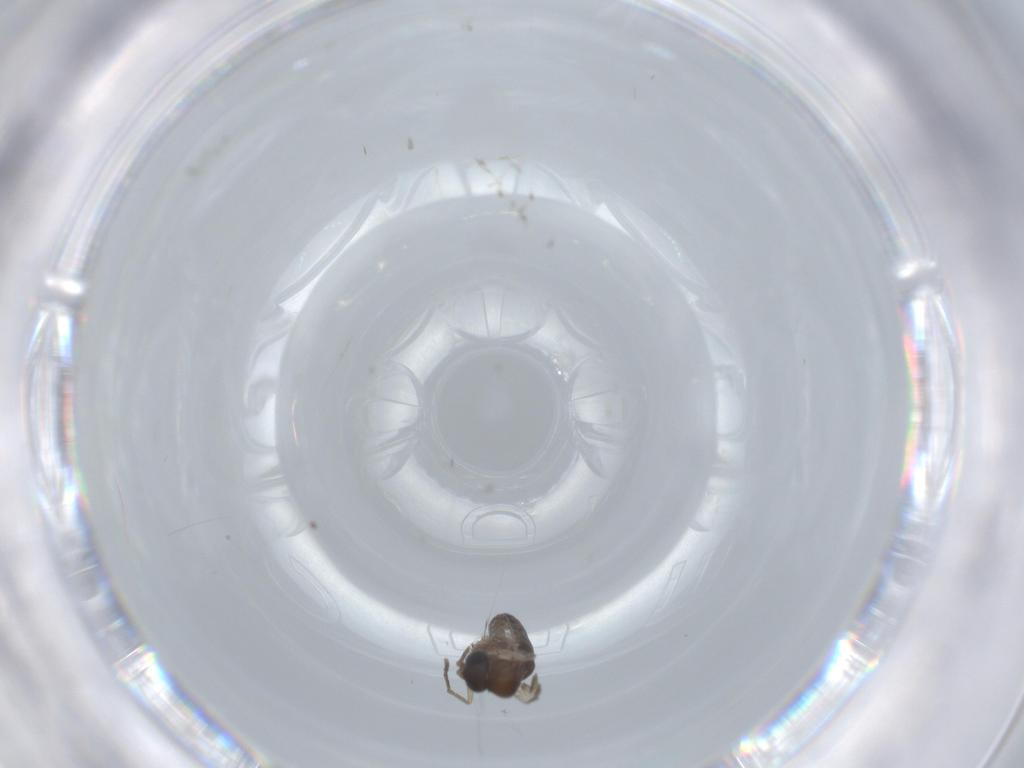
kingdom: Animalia
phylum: Arthropoda
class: Insecta
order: Diptera
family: Lauxaniidae
